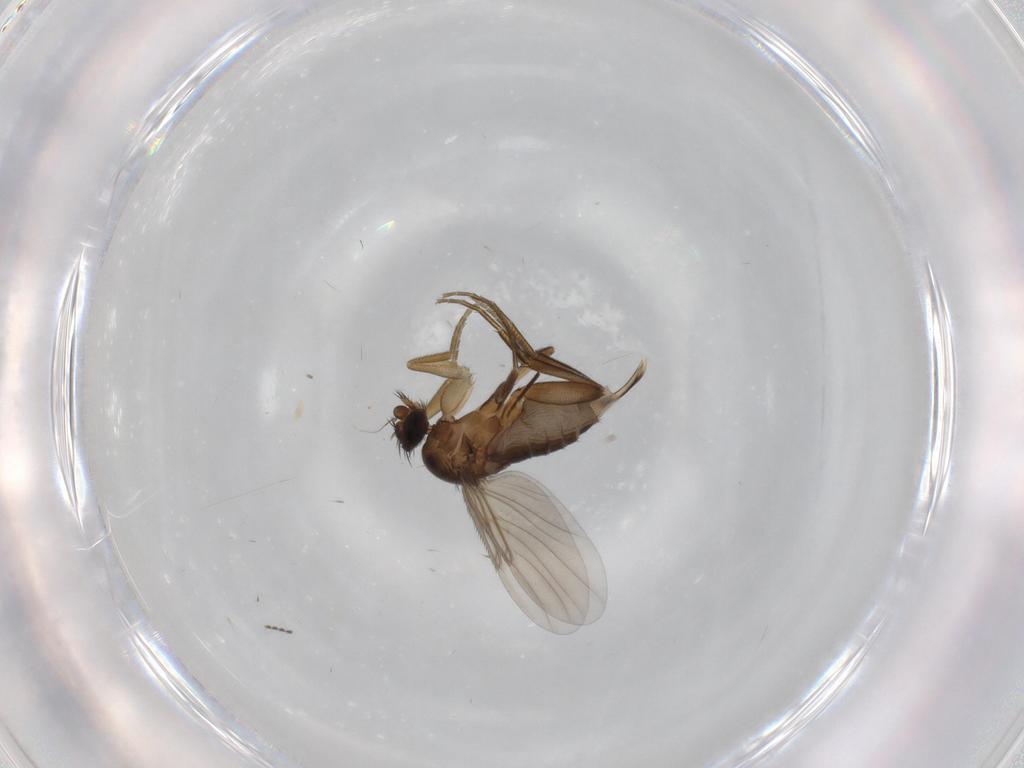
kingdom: Animalia
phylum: Arthropoda
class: Insecta
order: Diptera
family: Phoridae
